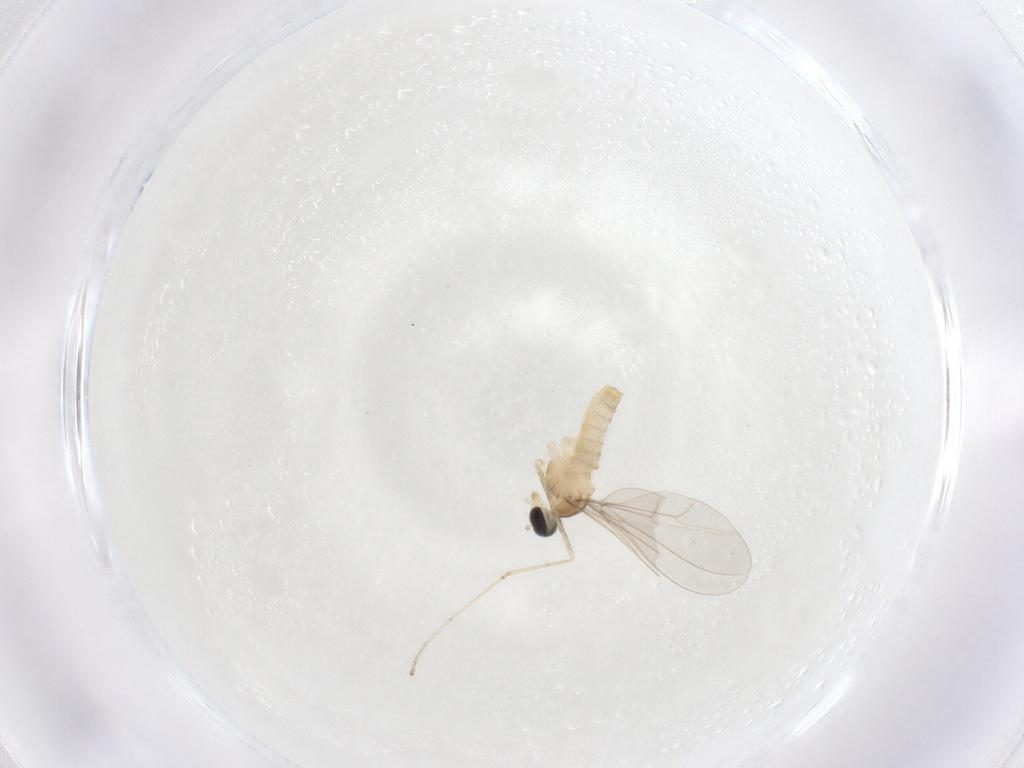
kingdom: Animalia
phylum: Arthropoda
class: Insecta
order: Diptera
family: Cecidomyiidae
